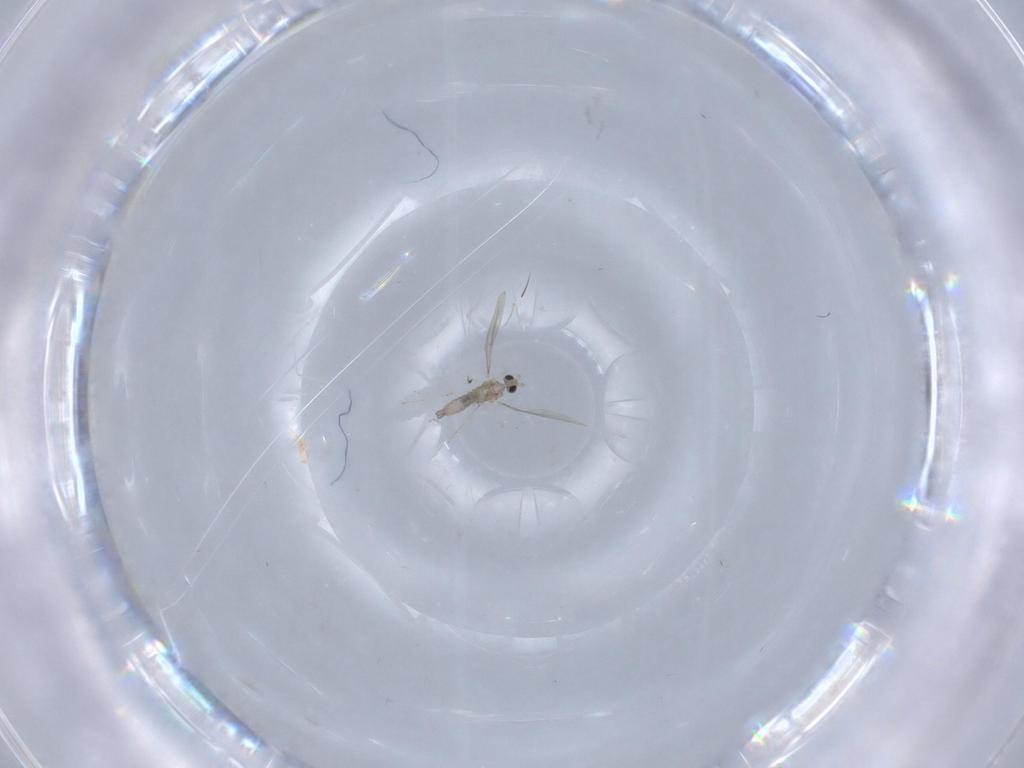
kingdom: Animalia
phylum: Arthropoda
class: Insecta
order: Diptera
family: Cecidomyiidae
